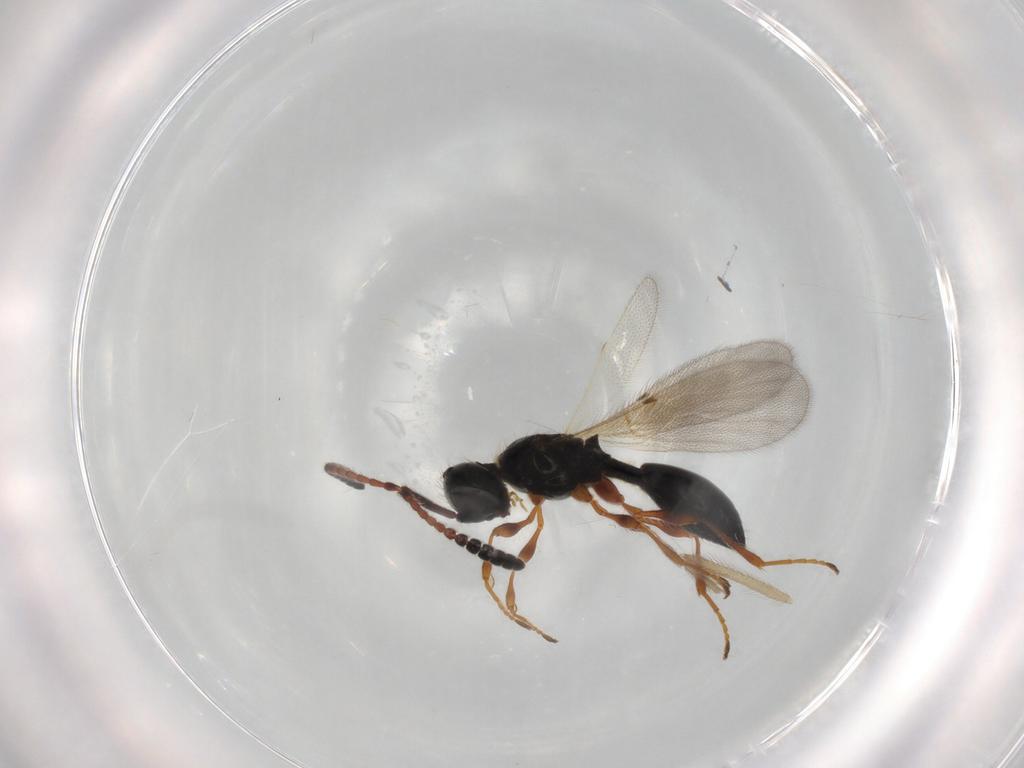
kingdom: Animalia
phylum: Arthropoda
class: Insecta
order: Hymenoptera
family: Diapriidae
